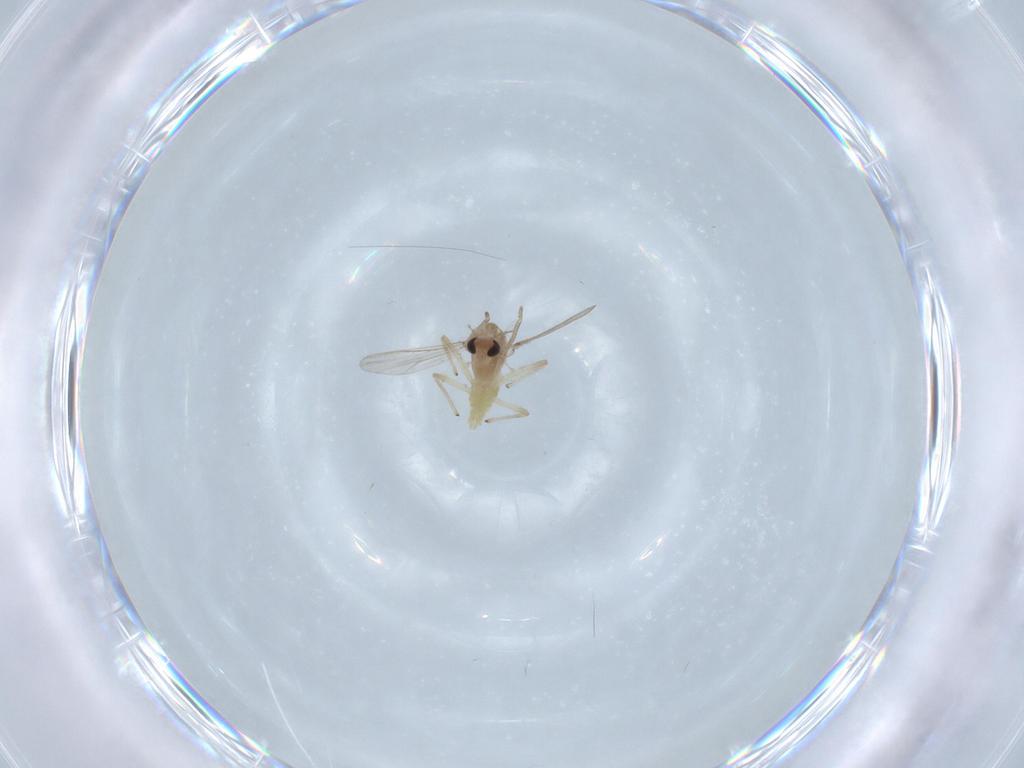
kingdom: Animalia
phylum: Arthropoda
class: Insecta
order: Diptera
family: Chironomidae
